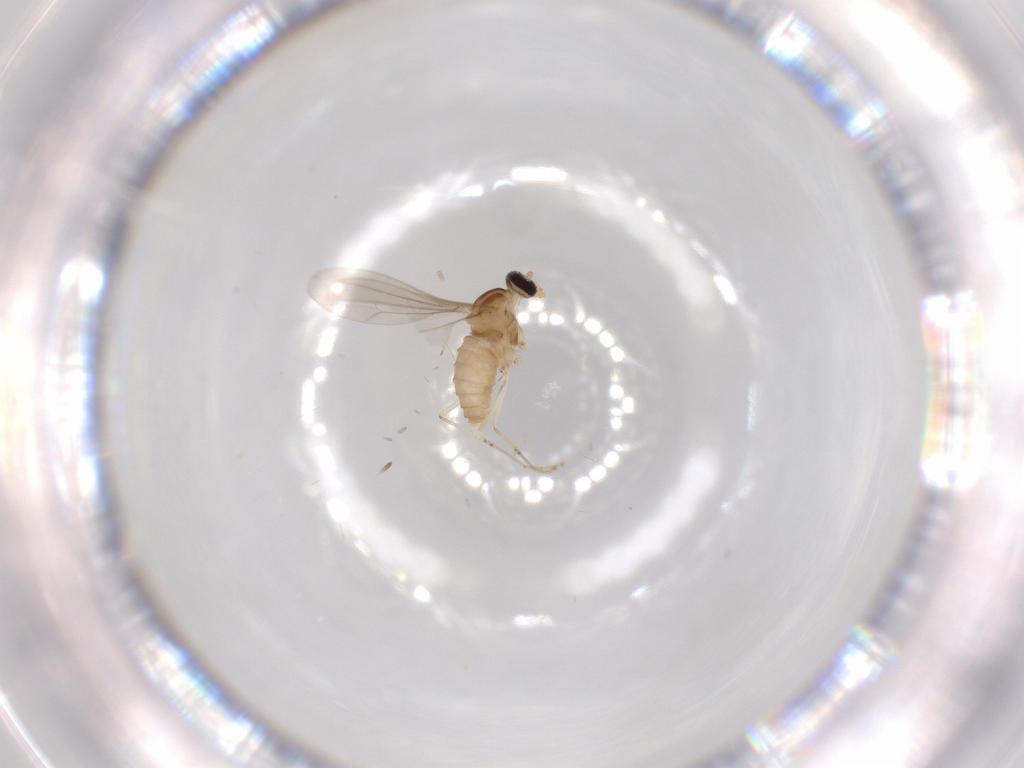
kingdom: Animalia
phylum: Arthropoda
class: Insecta
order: Diptera
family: Cecidomyiidae
